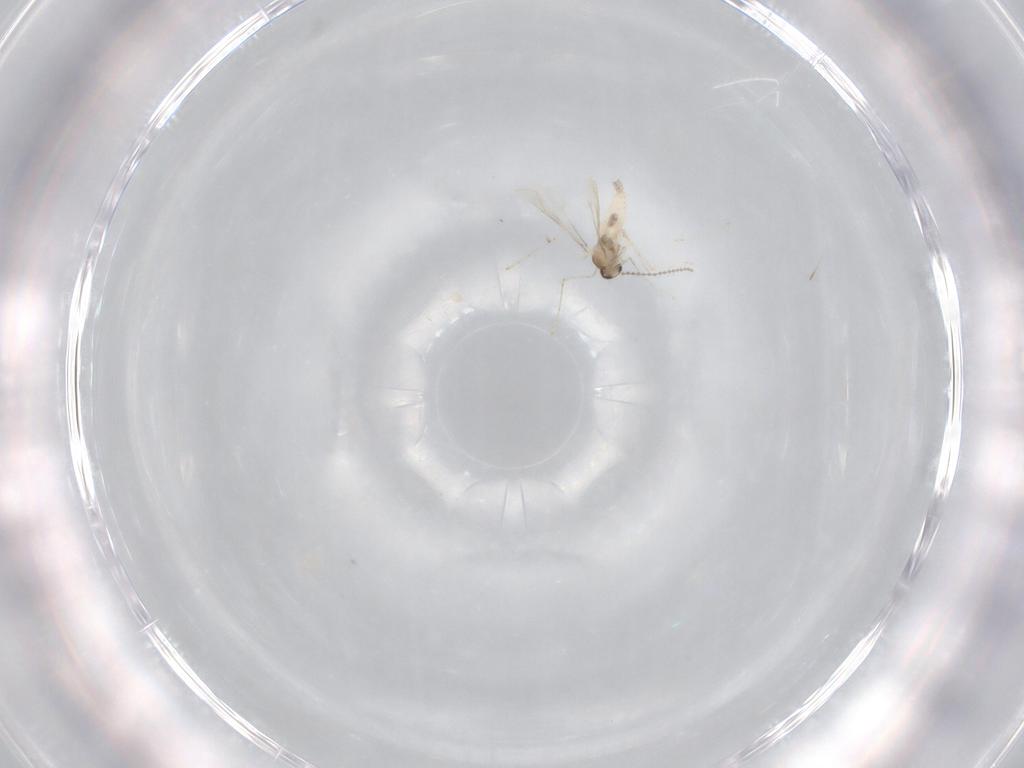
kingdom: Animalia
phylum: Arthropoda
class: Insecta
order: Diptera
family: Cecidomyiidae
